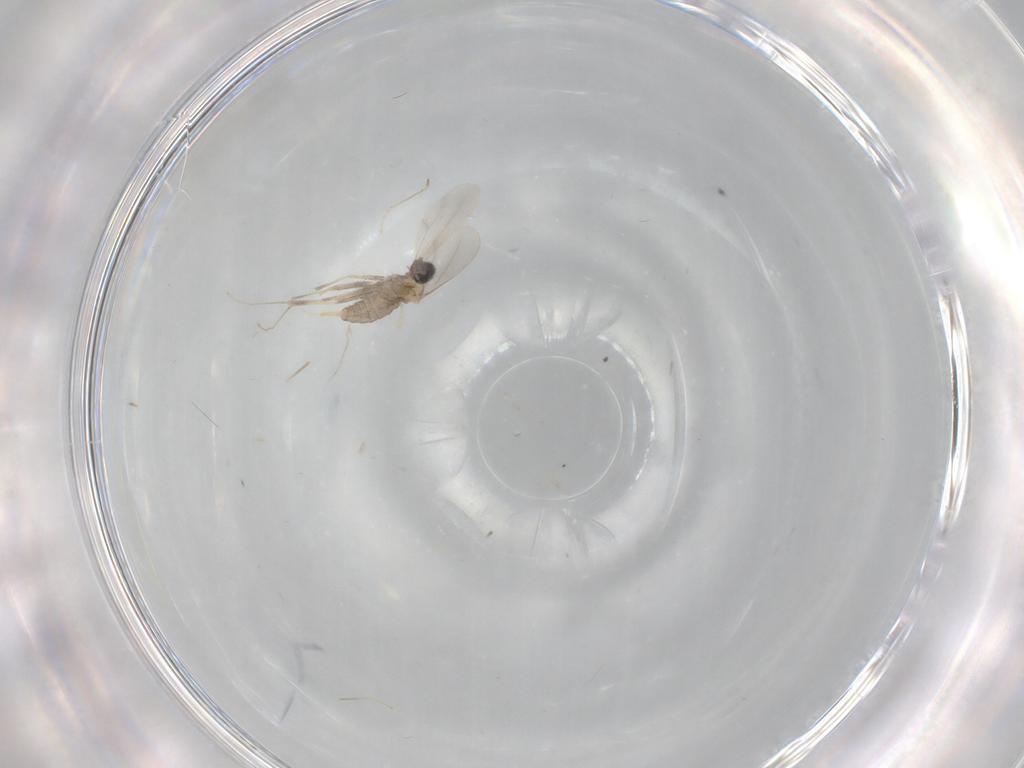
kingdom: Animalia
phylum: Arthropoda
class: Insecta
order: Diptera
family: Cecidomyiidae
